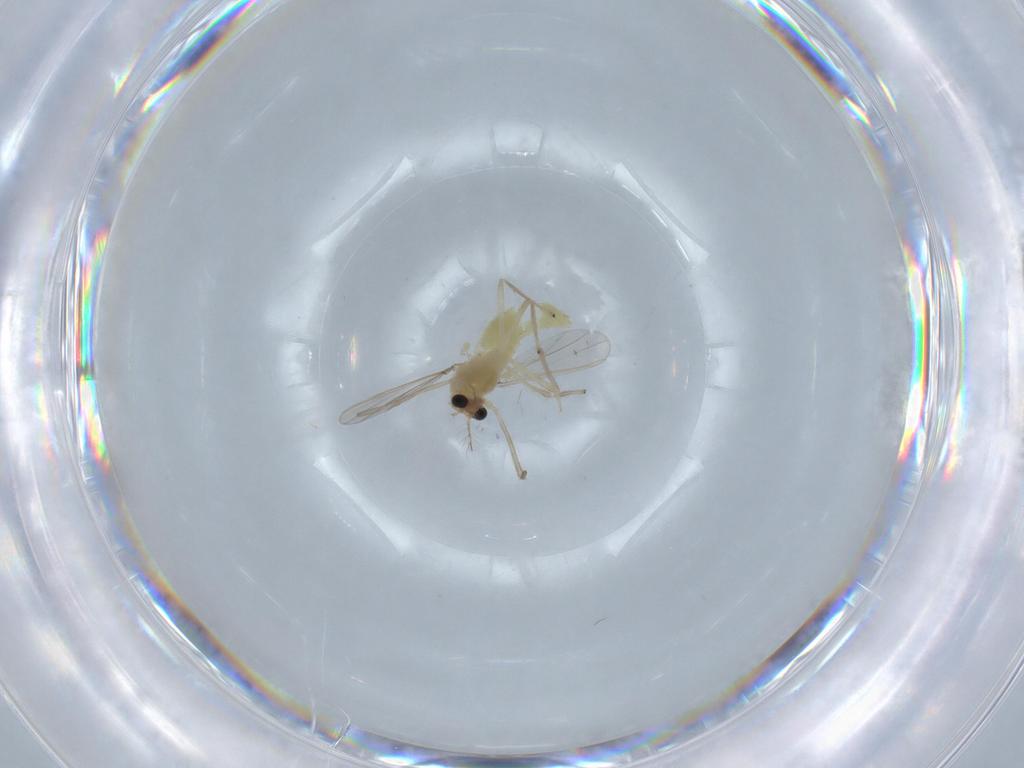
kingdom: Animalia
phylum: Arthropoda
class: Insecta
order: Diptera
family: Chironomidae
